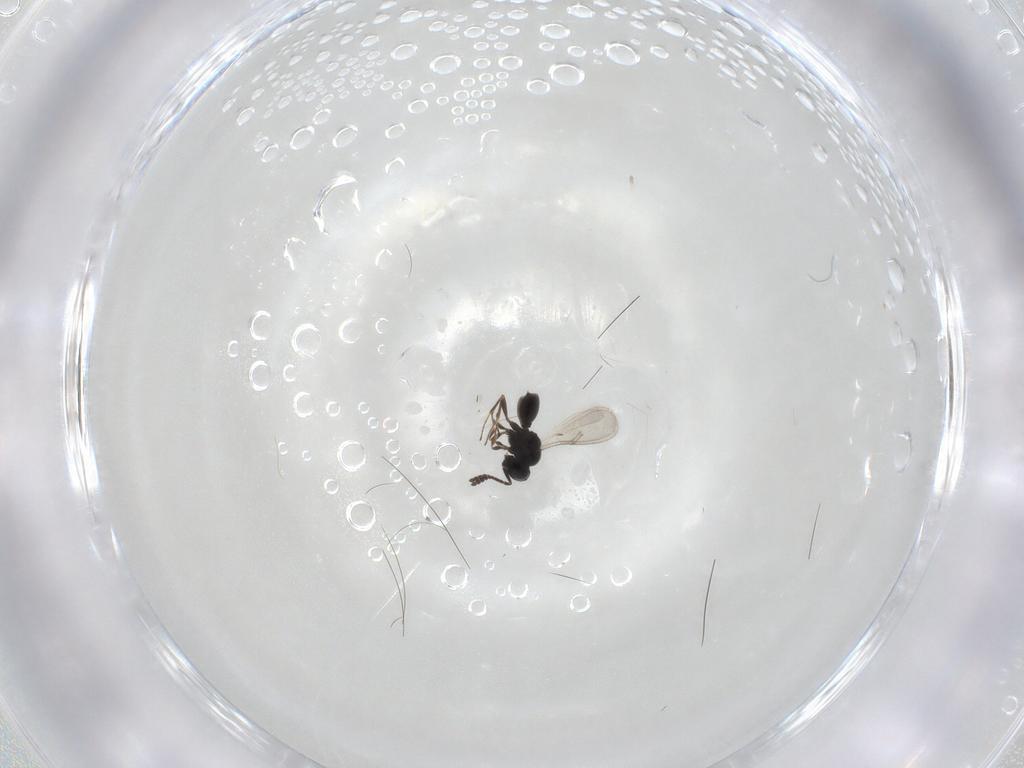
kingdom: Animalia
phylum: Arthropoda
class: Insecta
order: Hymenoptera
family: Scelionidae
